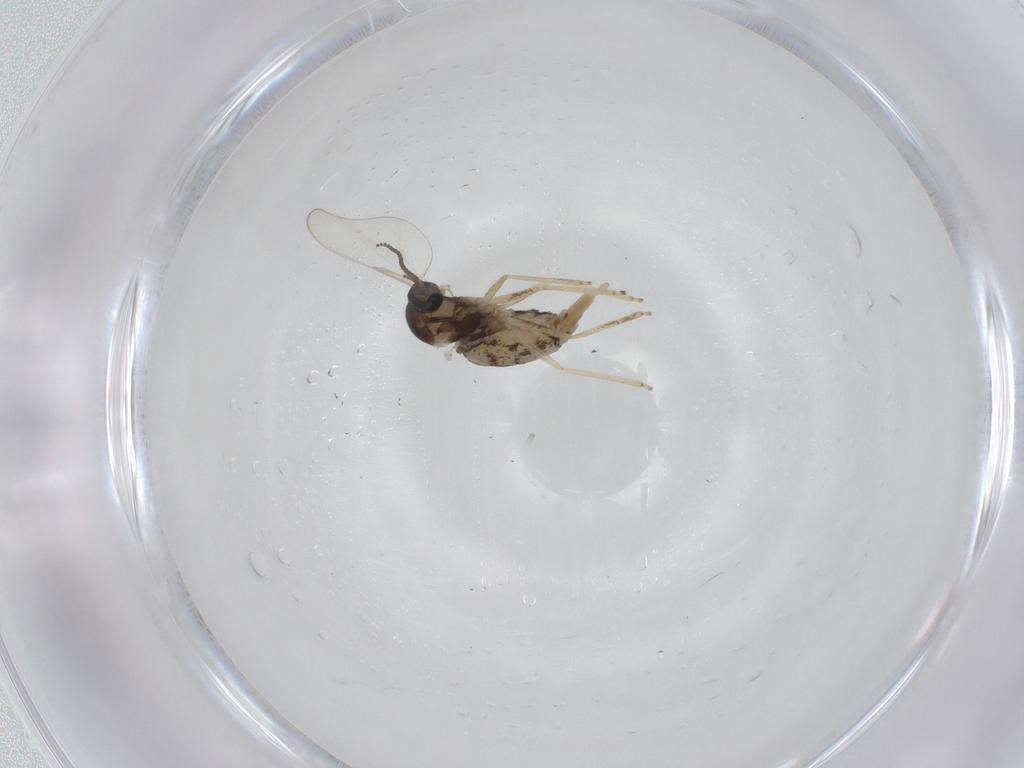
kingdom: Animalia
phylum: Arthropoda
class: Insecta
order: Diptera
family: Cecidomyiidae
